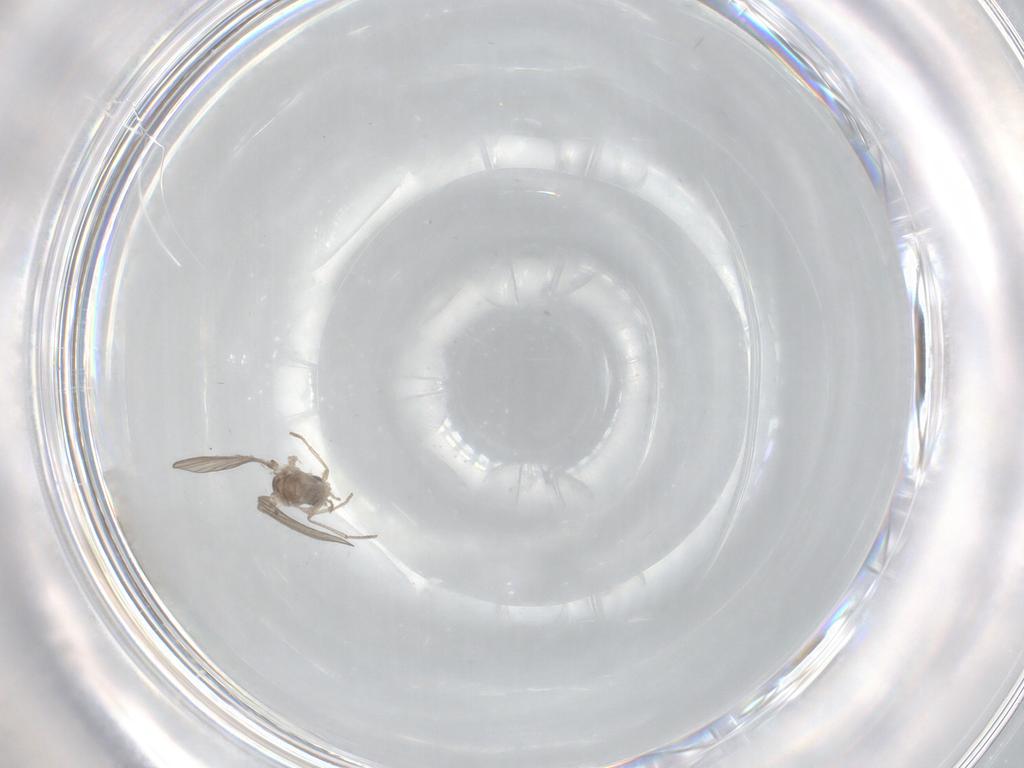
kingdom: Animalia
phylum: Arthropoda
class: Insecta
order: Diptera
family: Psychodidae
